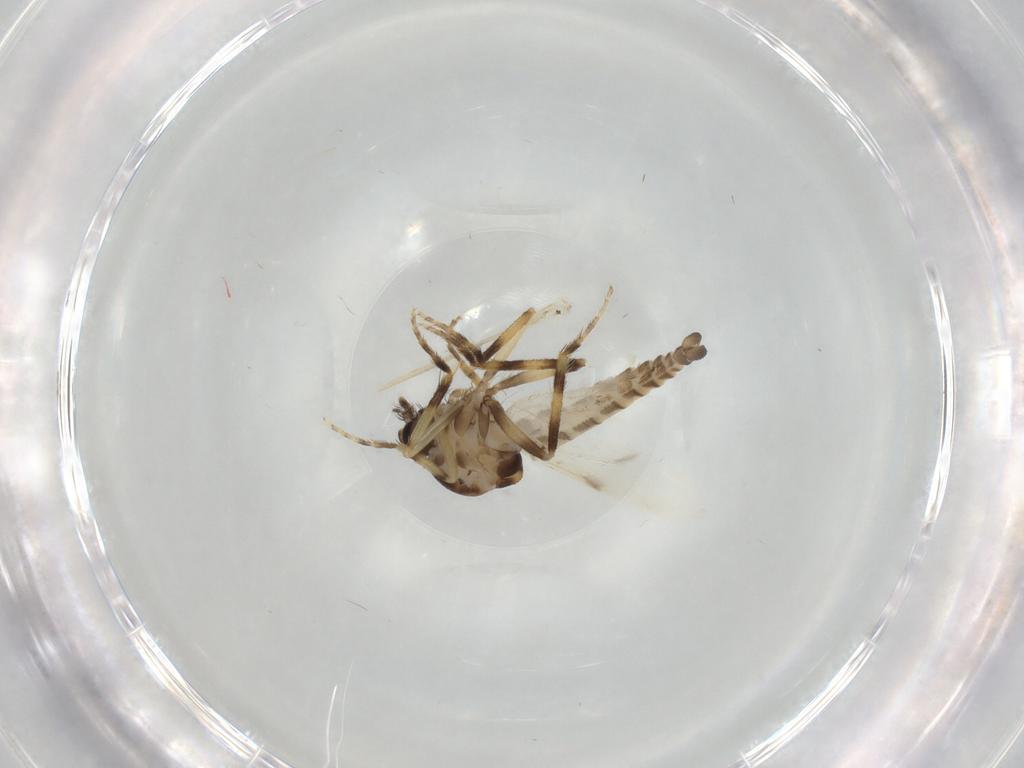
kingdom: Animalia
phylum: Arthropoda
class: Insecta
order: Diptera
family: Ceratopogonidae
